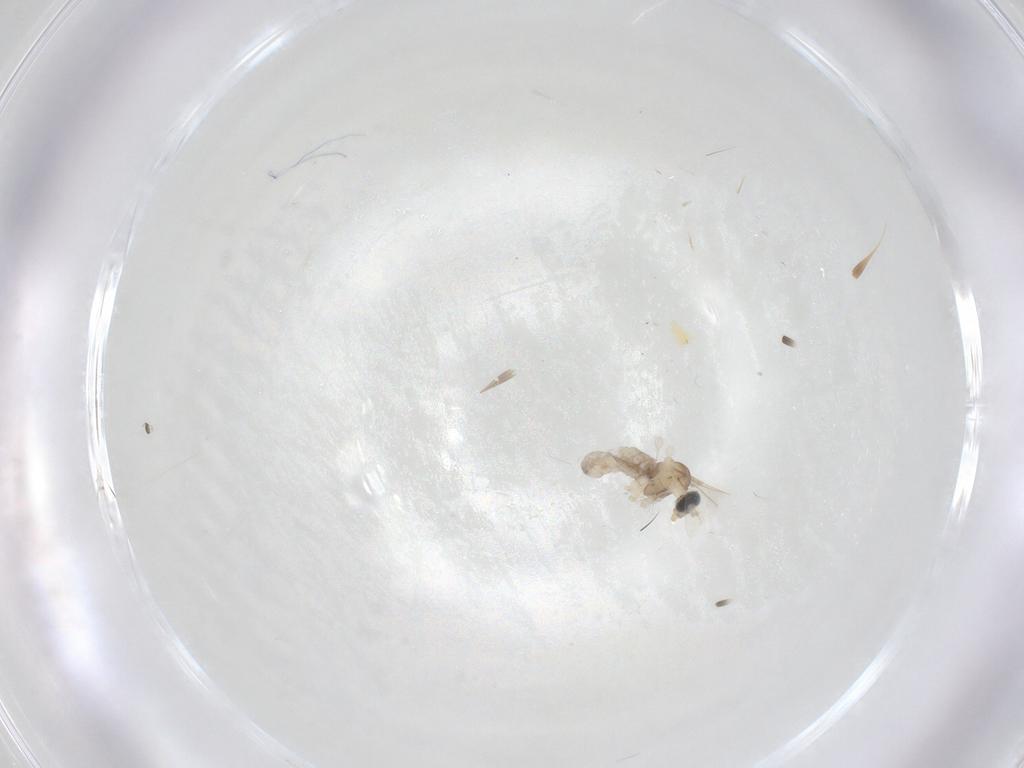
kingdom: Animalia
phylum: Arthropoda
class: Insecta
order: Diptera
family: Cecidomyiidae
